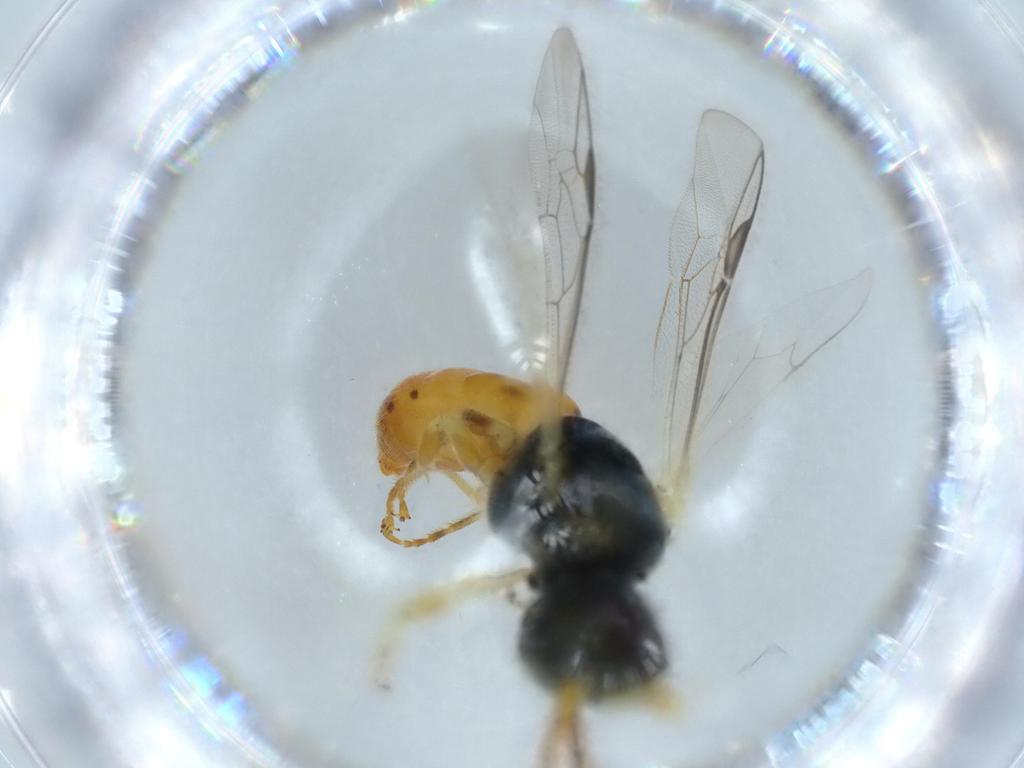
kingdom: Animalia
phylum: Arthropoda
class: Insecta
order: Hymenoptera
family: Halictidae
